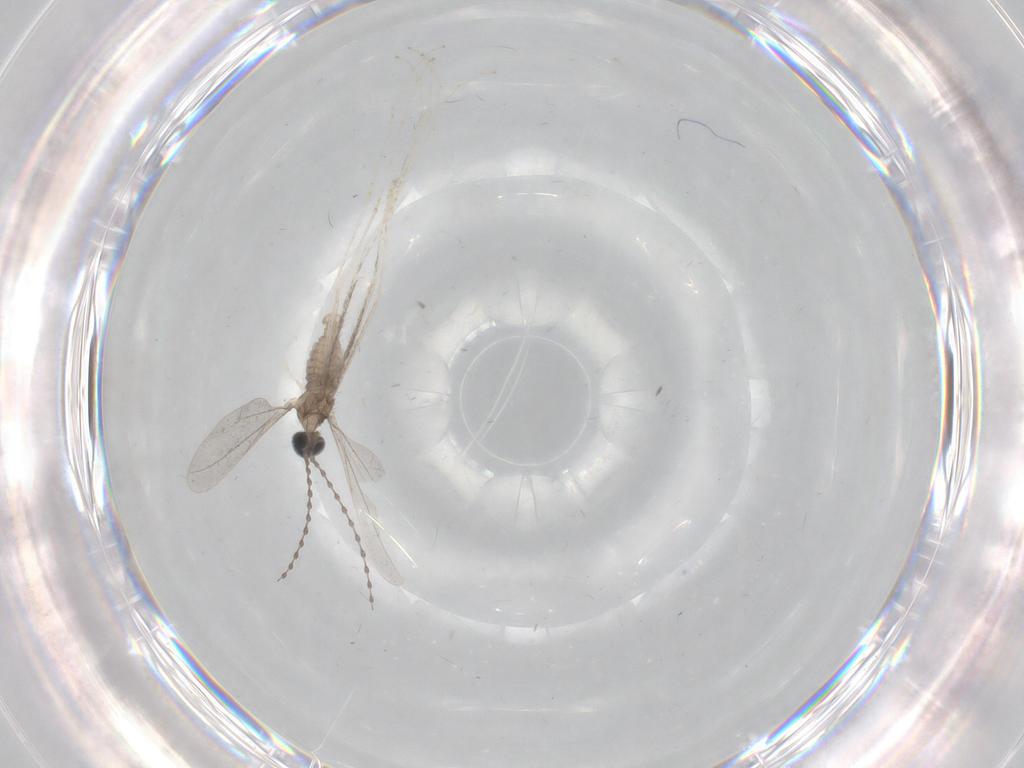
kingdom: Animalia
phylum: Arthropoda
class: Insecta
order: Diptera
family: Cecidomyiidae
